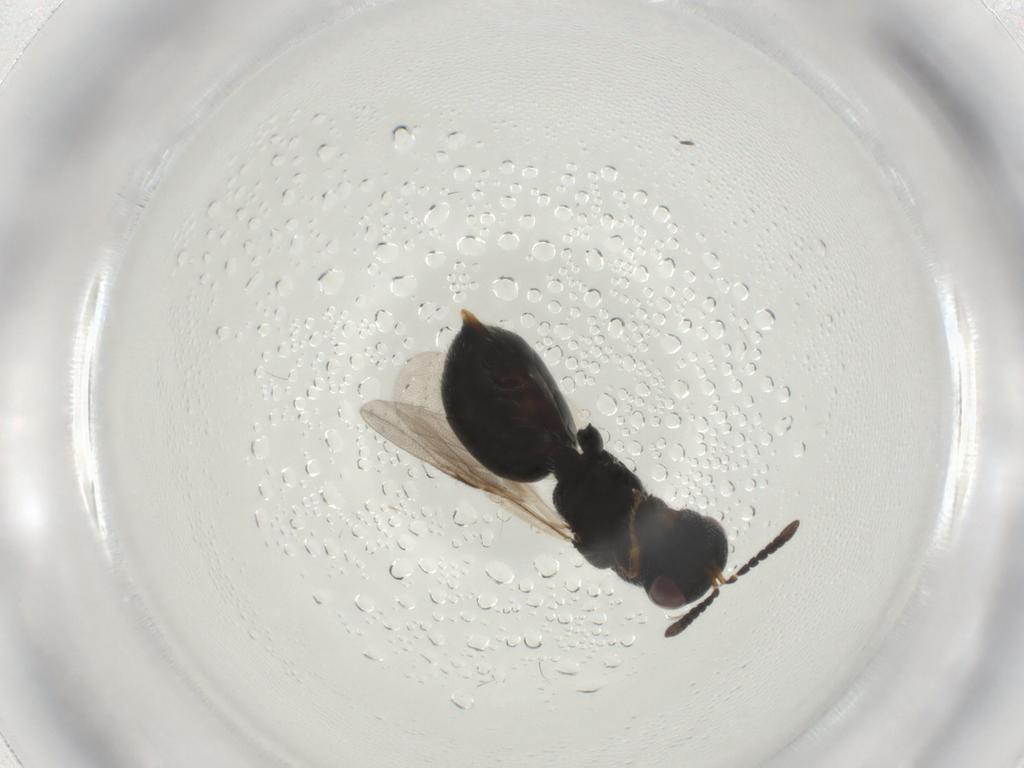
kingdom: Animalia
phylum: Arthropoda
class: Insecta
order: Hymenoptera
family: Eurytomidae
